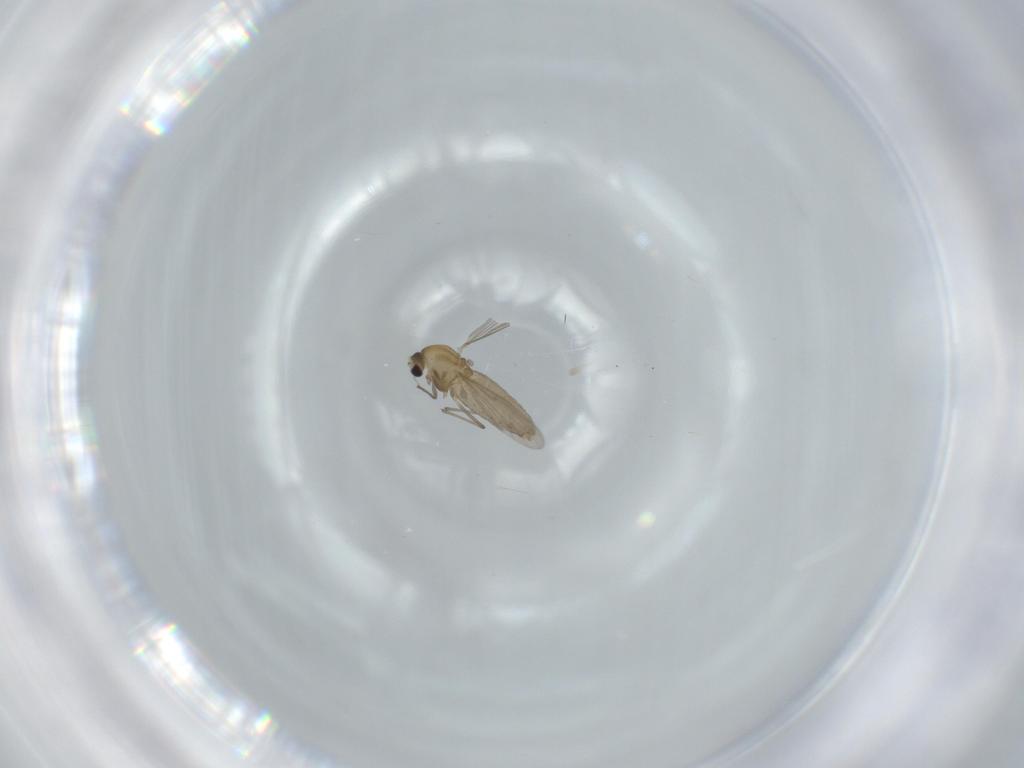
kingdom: Animalia
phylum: Arthropoda
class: Insecta
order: Diptera
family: Chironomidae
